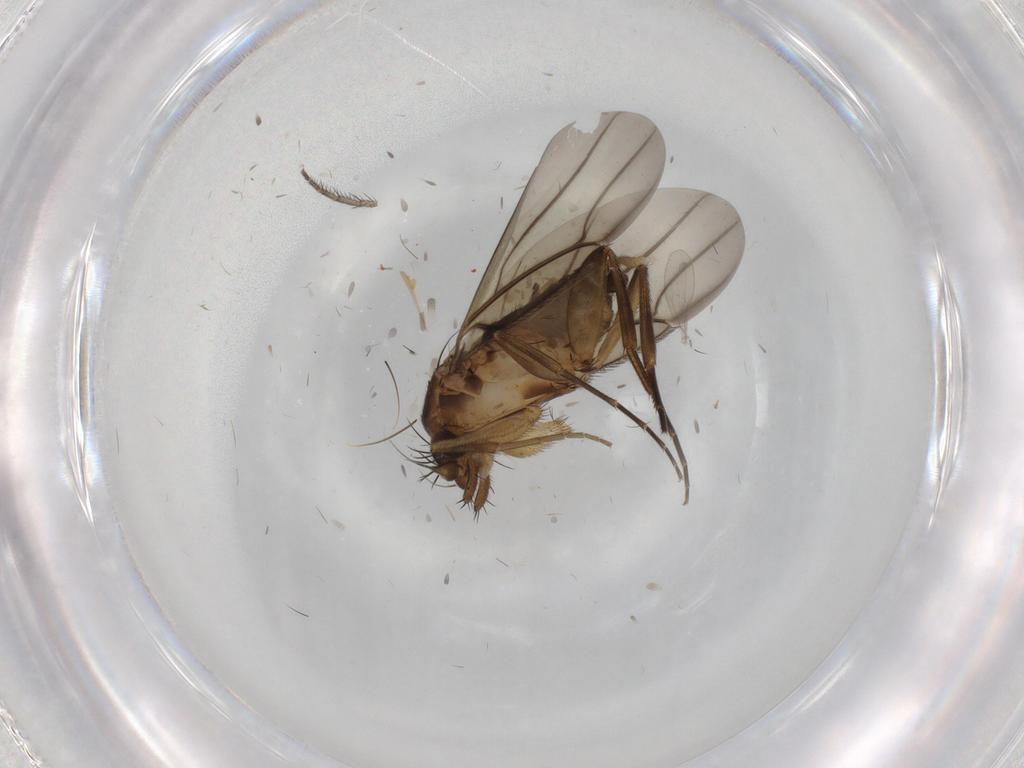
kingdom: Animalia
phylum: Arthropoda
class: Insecta
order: Diptera
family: Phoridae
